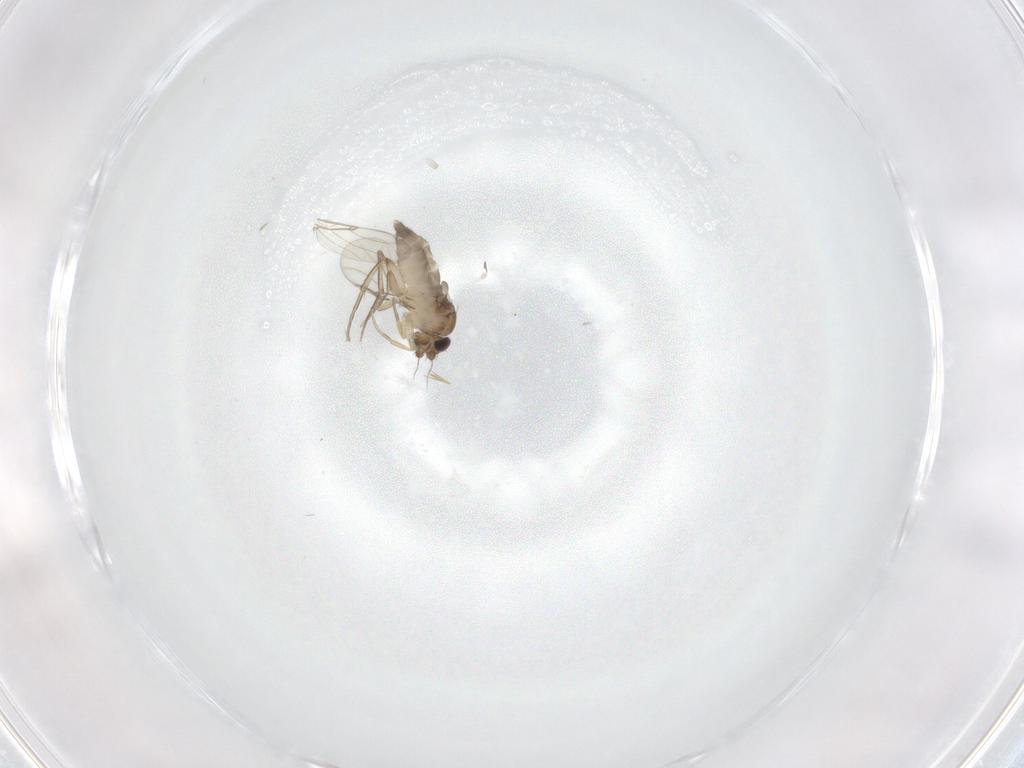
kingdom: Animalia
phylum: Arthropoda
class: Insecta
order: Diptera
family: Phoridae
